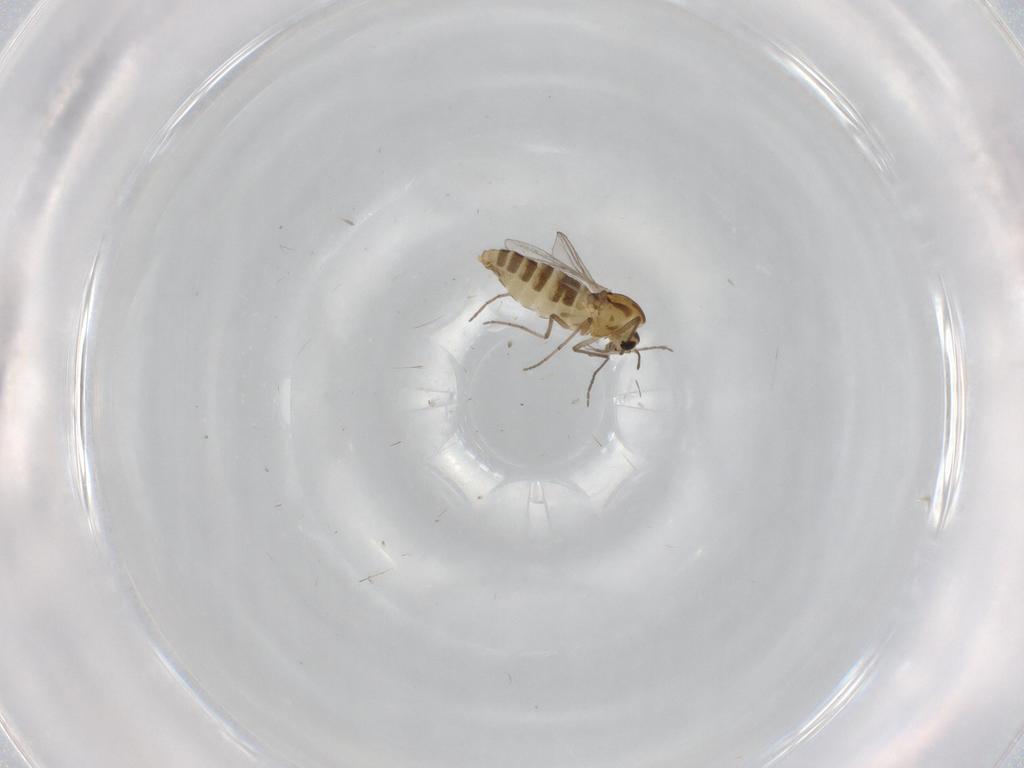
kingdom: Animalia
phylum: Arthropoda
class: Insecta
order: Diptera
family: Chironomidae
